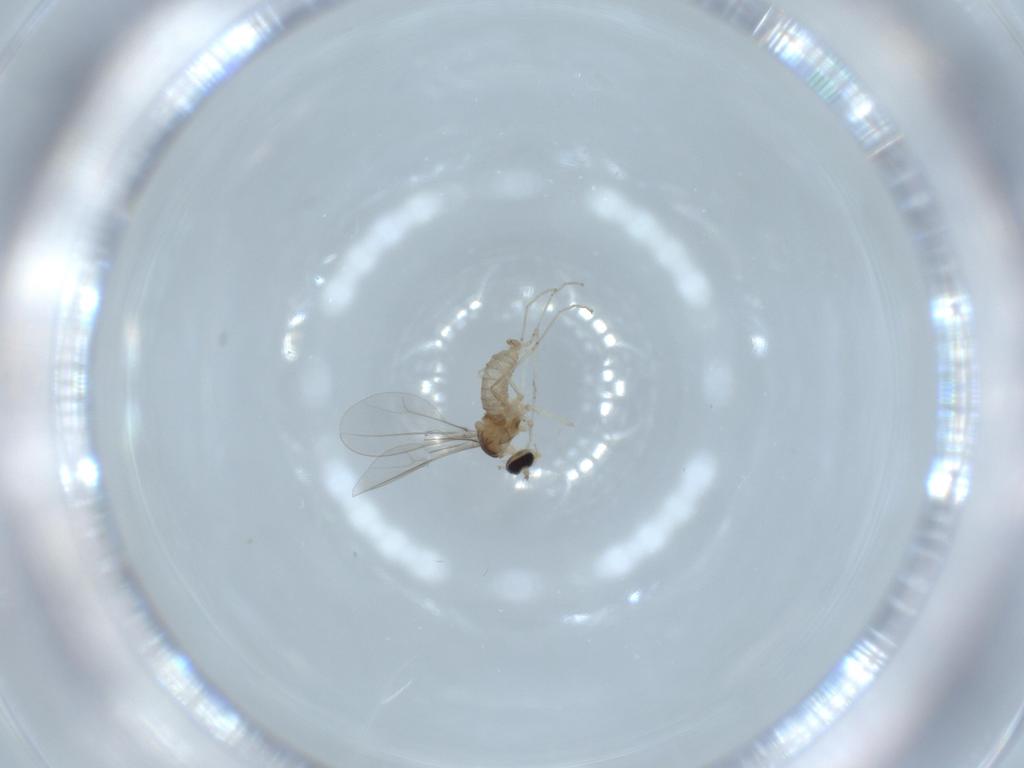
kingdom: Animalia
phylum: Arthropoda
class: Insecta
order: Diptera
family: Cecidomyiidae
